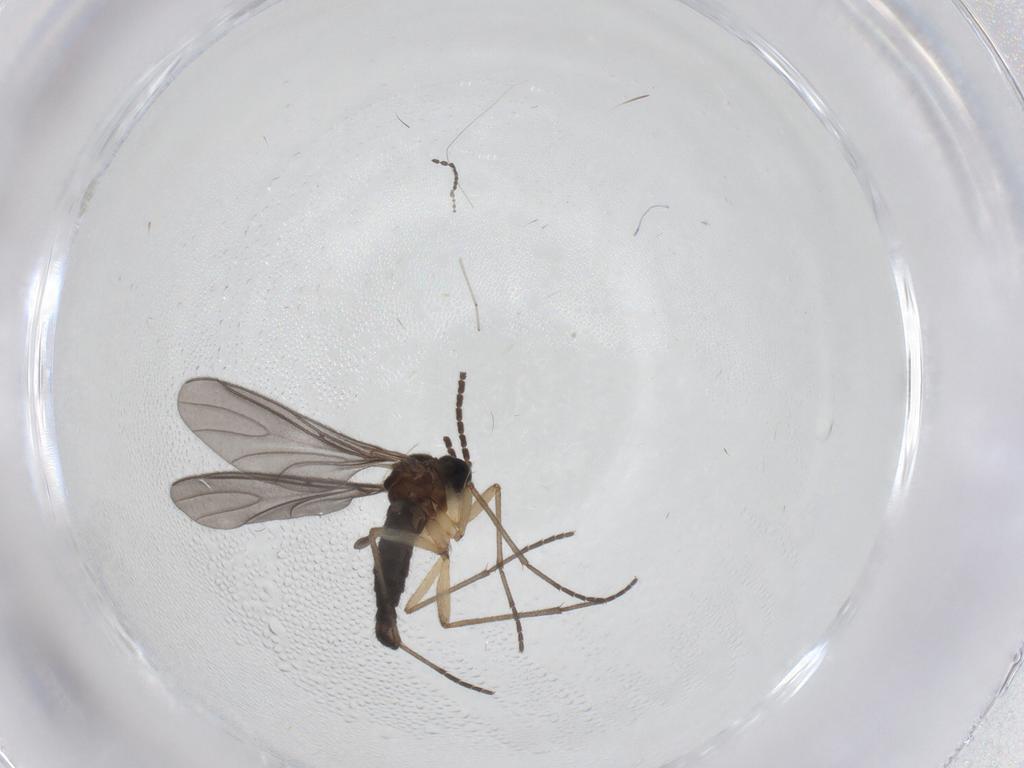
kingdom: Animalia
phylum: Arthropoda
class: Insecta
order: Diptera
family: Sciaridae
